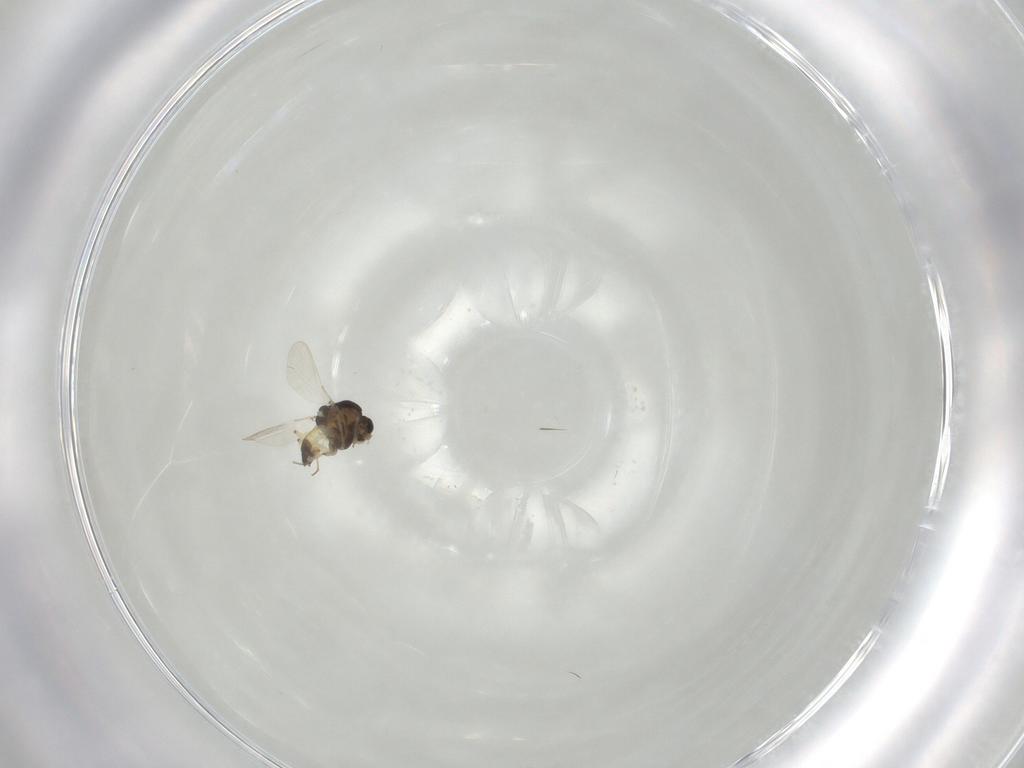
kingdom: Animalia
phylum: Arthropoda
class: Insecta
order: Diptera
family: Chironomidae
